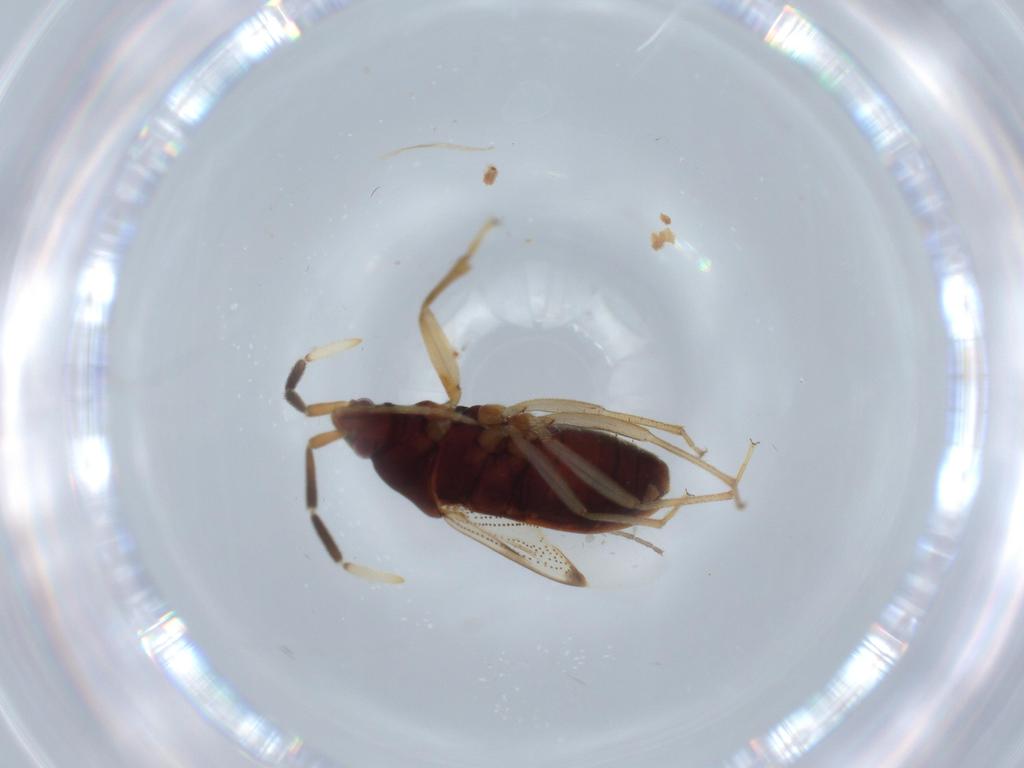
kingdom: Animalia
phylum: Arthropoda
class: Insecta
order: Hemiptera
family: Rhyparochromidae
